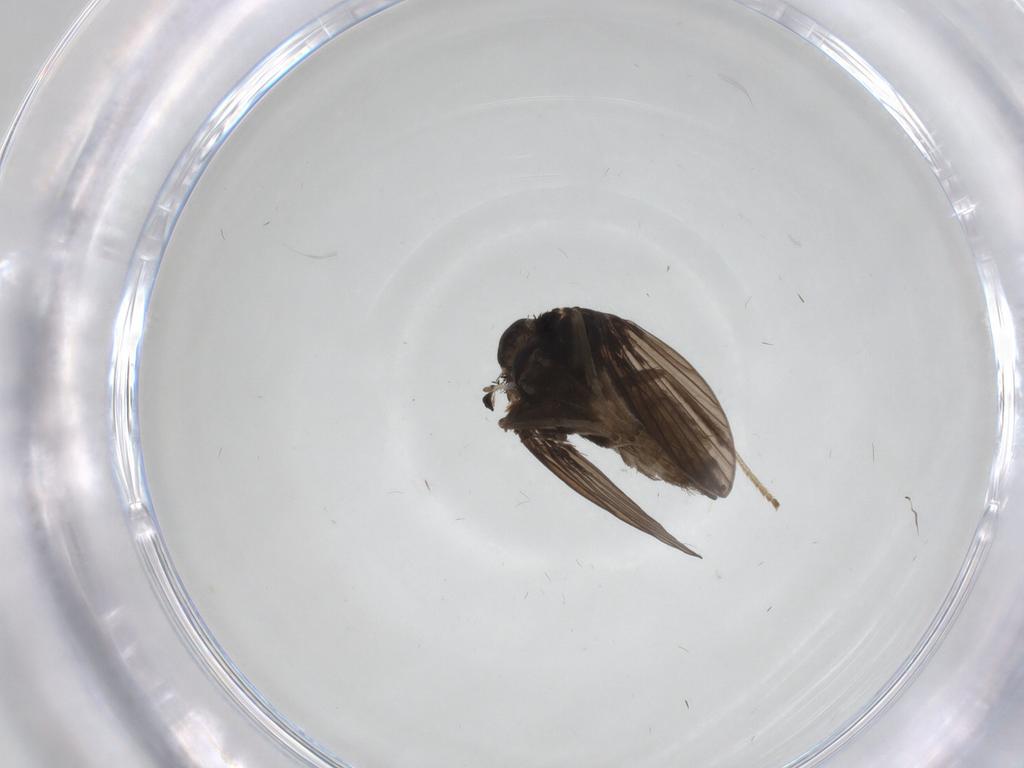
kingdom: Animalia
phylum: Arthropoda
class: Insecta
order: Diptera
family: Psychodidae
